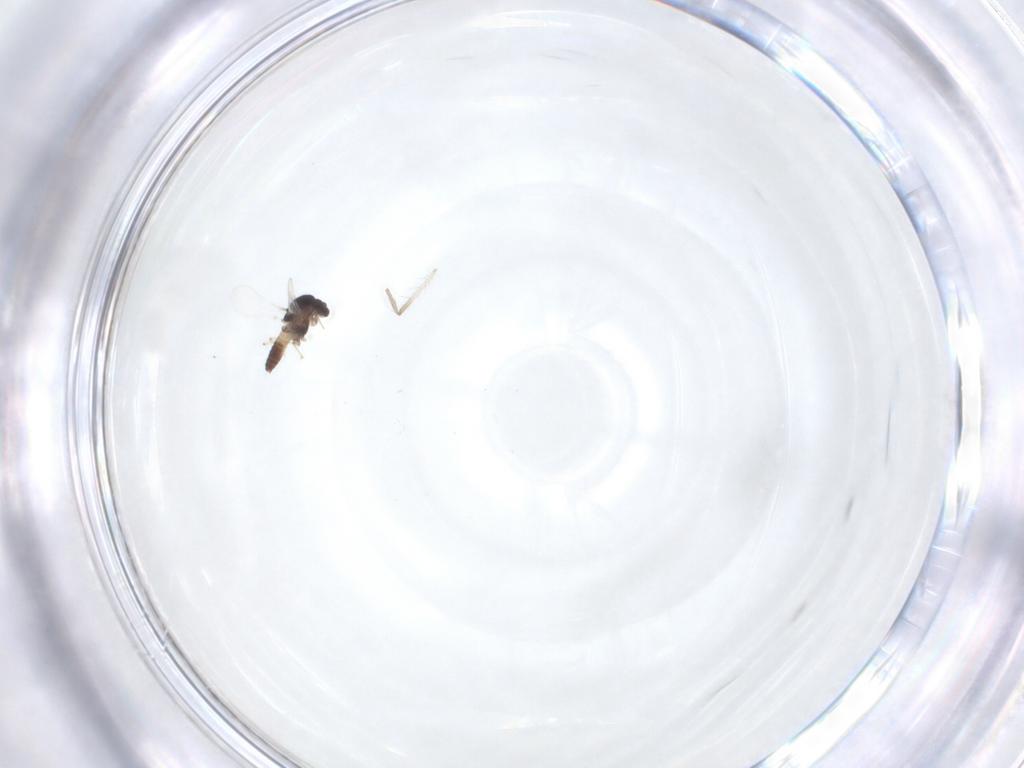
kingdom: Animalia
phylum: Arthropoda
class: Insecta
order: Diptera
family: Chironomidae
